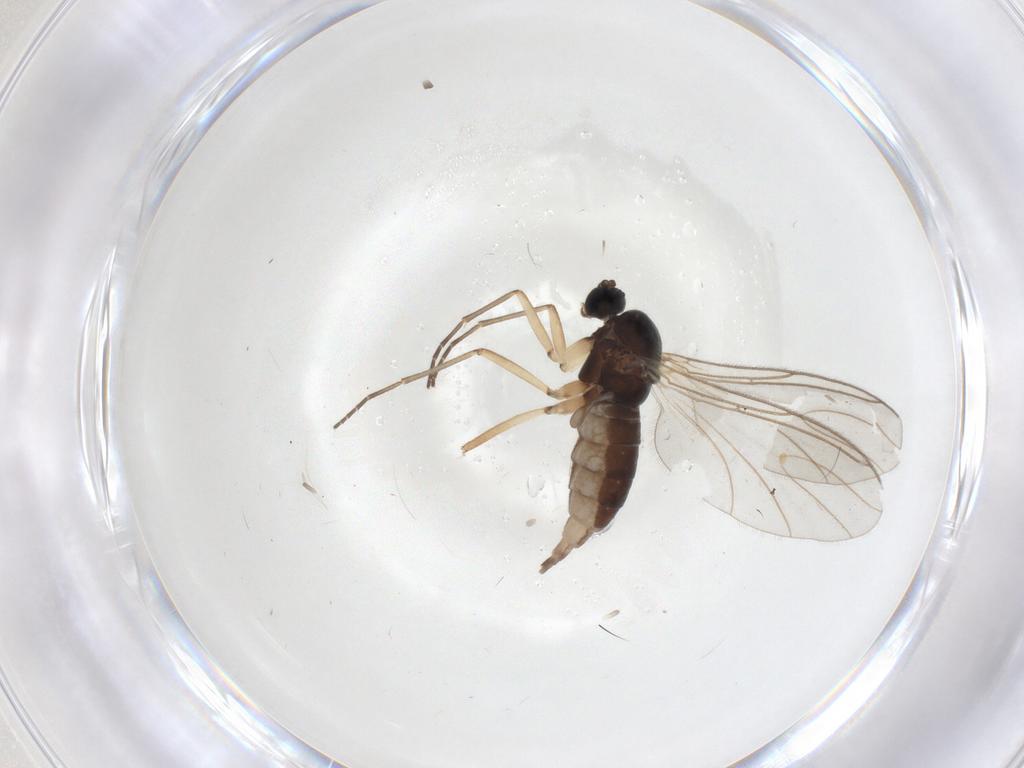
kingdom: Animalia
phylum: Arthropoda
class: Insecta
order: Diptera
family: Sciaridae
